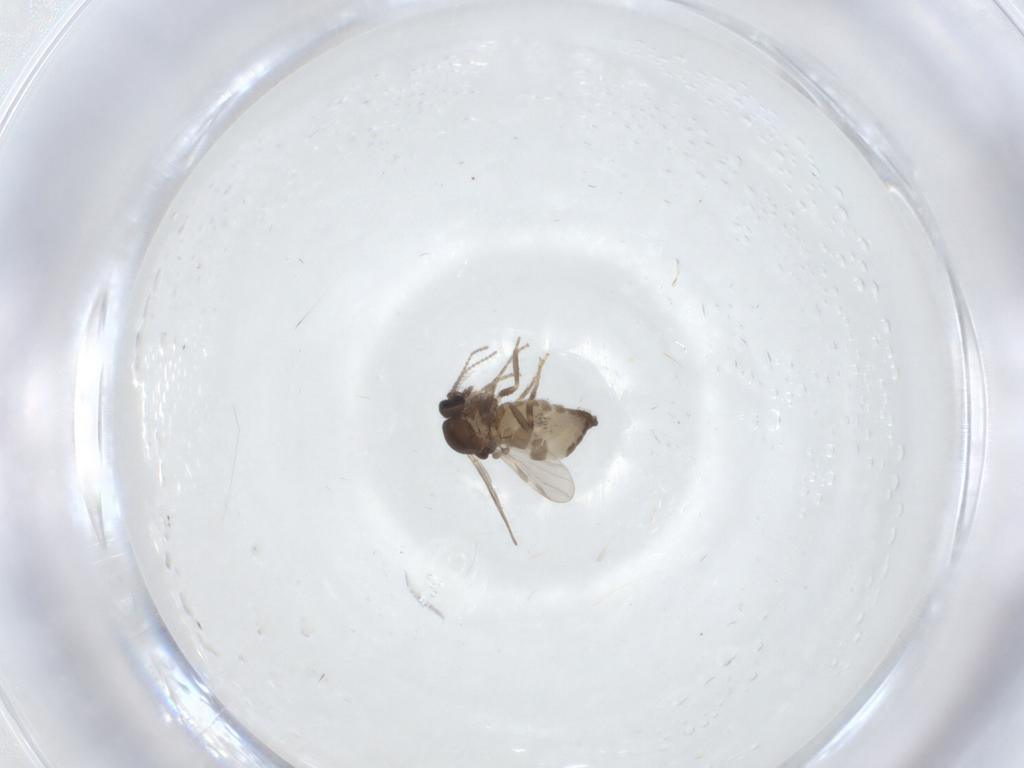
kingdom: Animalia
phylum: Arthropoda
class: Insecta
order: Diptera
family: Ceratopogonidae
